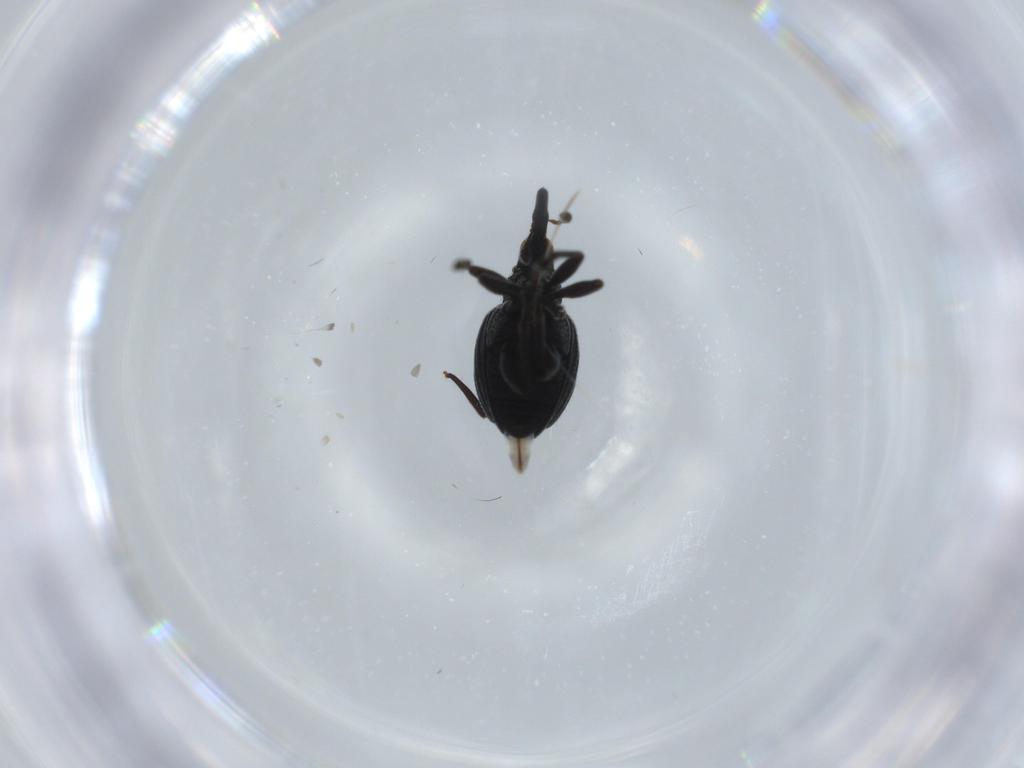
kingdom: Animalia
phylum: Arthropoda
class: Insecta
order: Coleoptera
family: Brentidae
